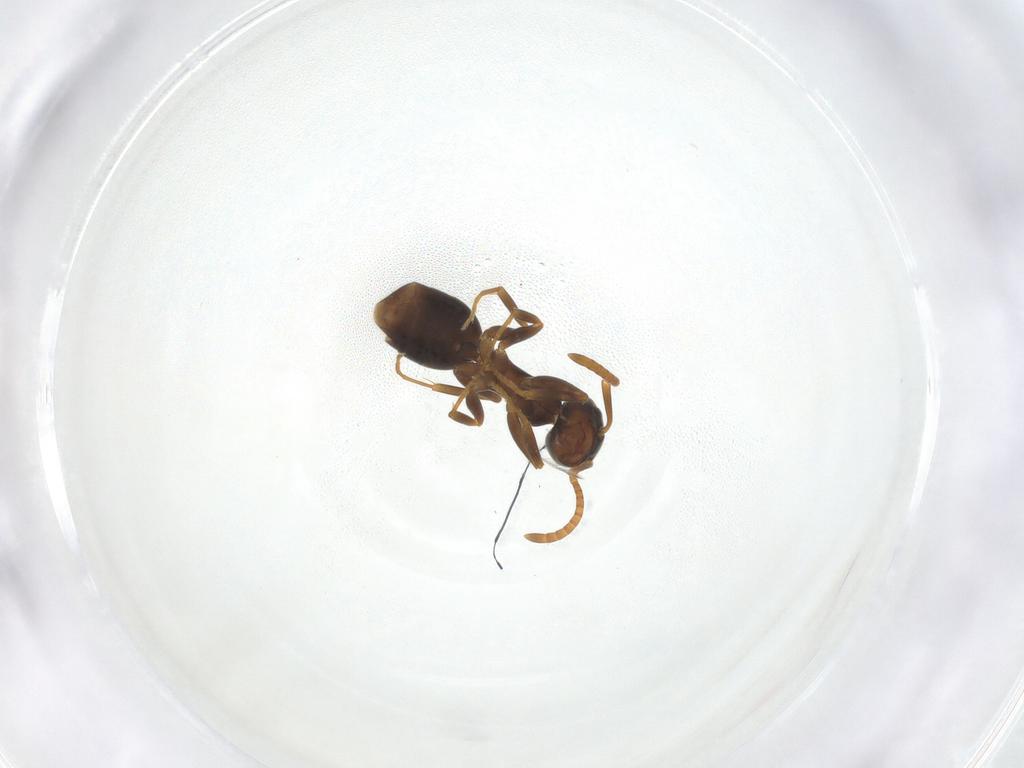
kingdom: Animalia
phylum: Arthropoda
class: Insecta
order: Hymenoptera
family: Formicidae
